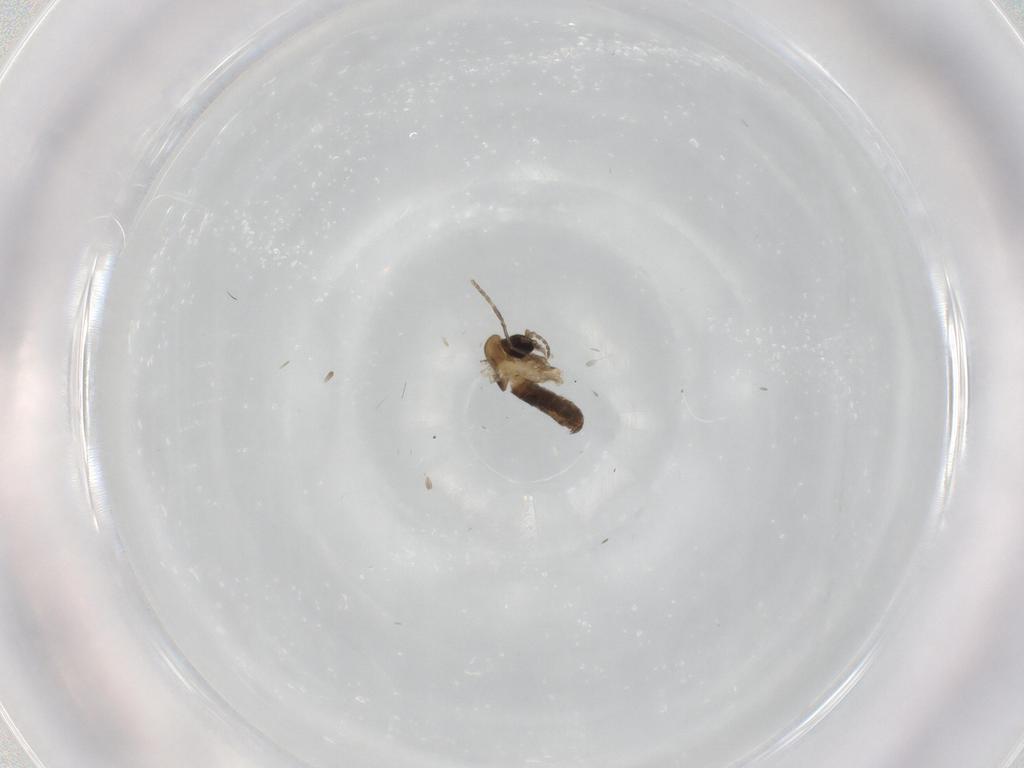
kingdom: Animalia
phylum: Arthropoda
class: Insecta
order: Diptera
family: Psychodidae
